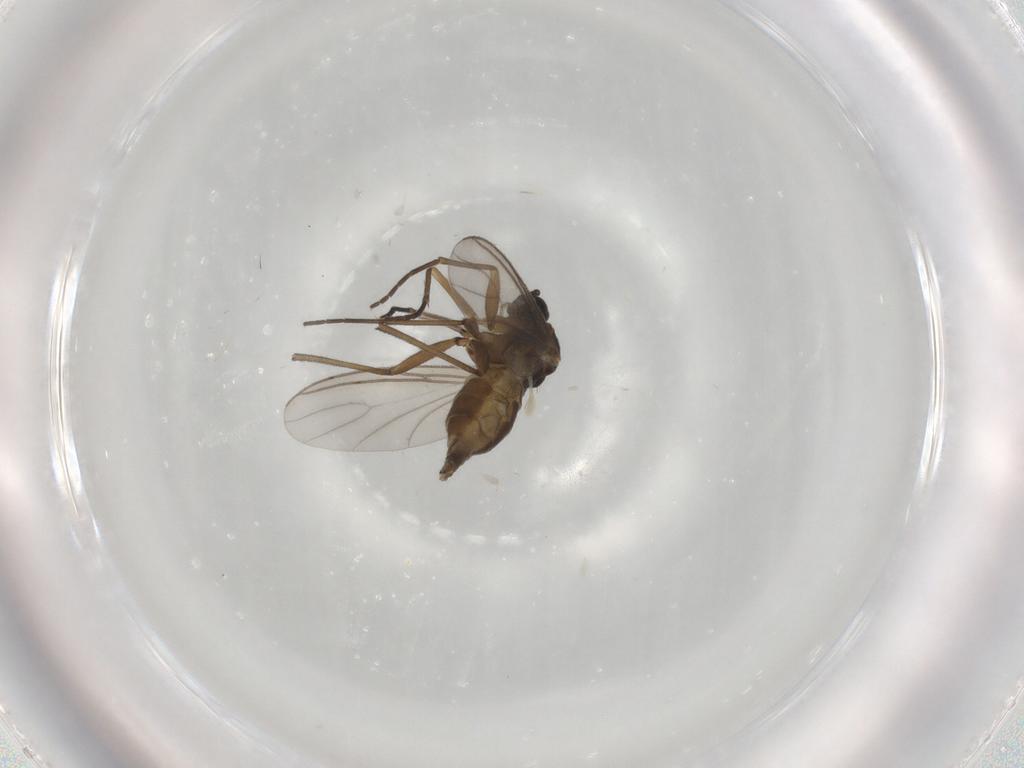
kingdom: Animalia
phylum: Arthropoda
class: Insecta
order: Diptera
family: Sciaridae
